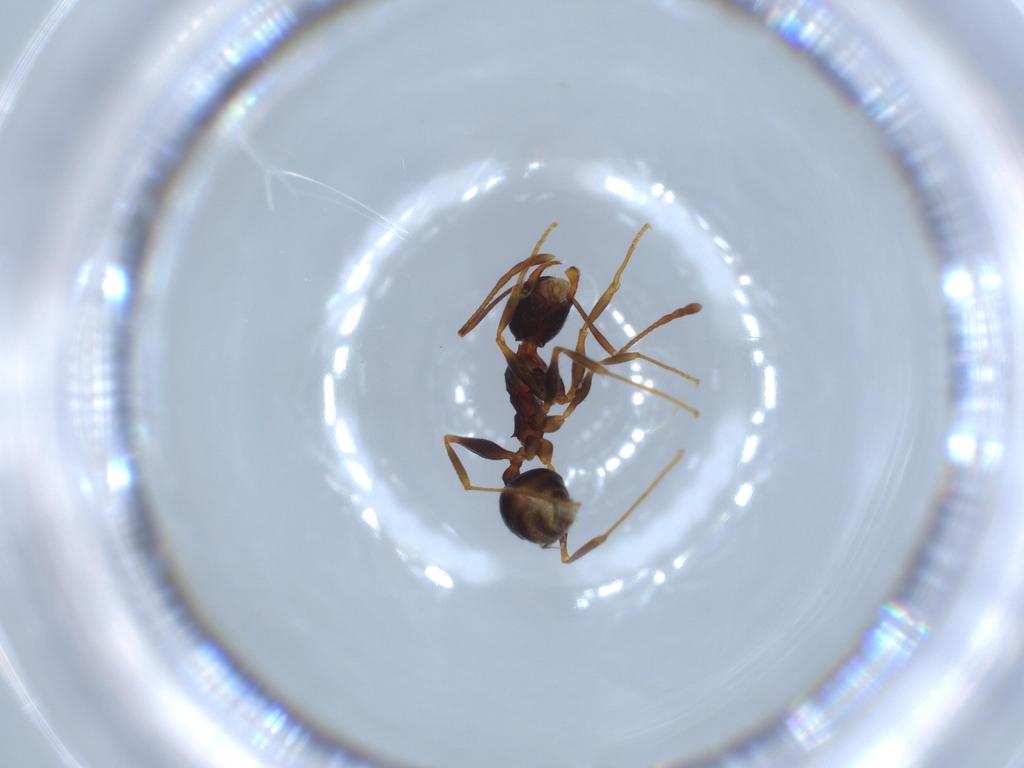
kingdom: Animalia
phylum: Arthropoda
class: Insecta
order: Hymenoptera
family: Formicidae
